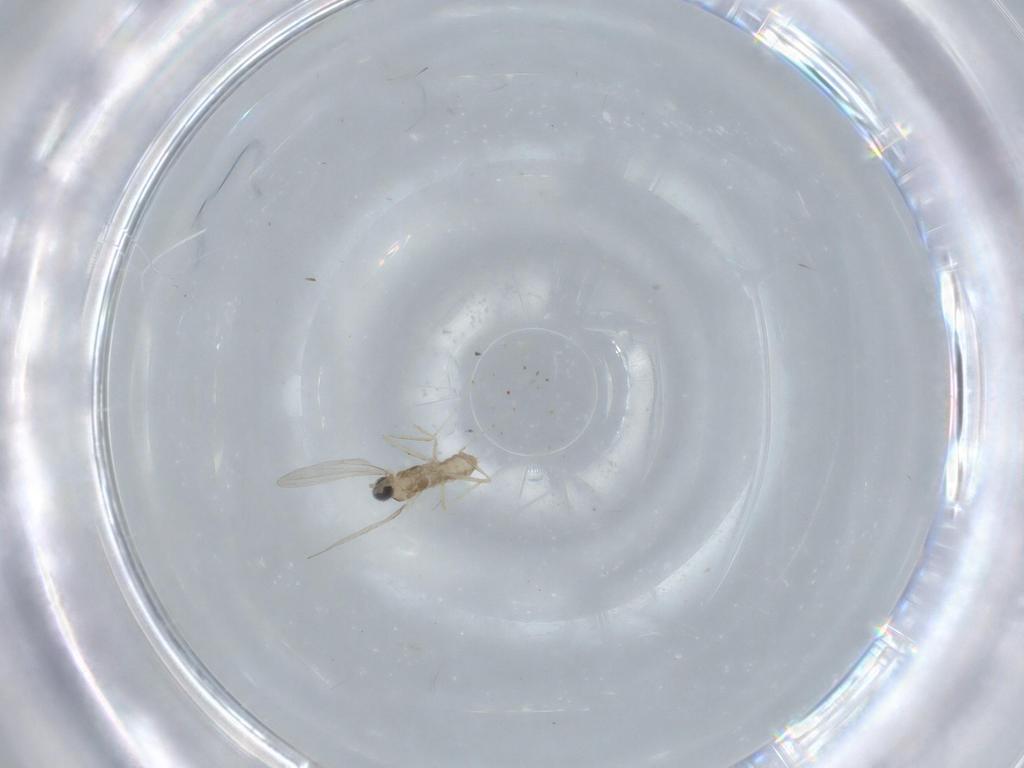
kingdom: Animalia
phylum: Arthropoda
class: Insecta
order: Diptera
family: Cecidomyiidae
